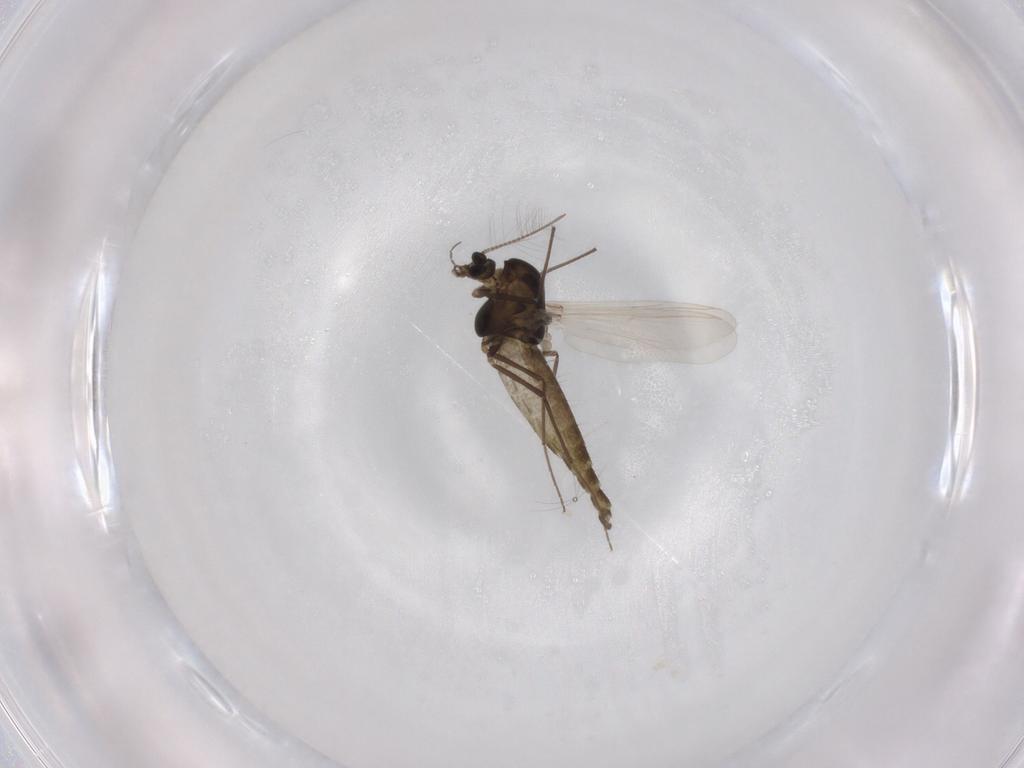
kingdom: Animalia
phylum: Arthropoda
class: Insecta
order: Diptera
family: Chironomidae
